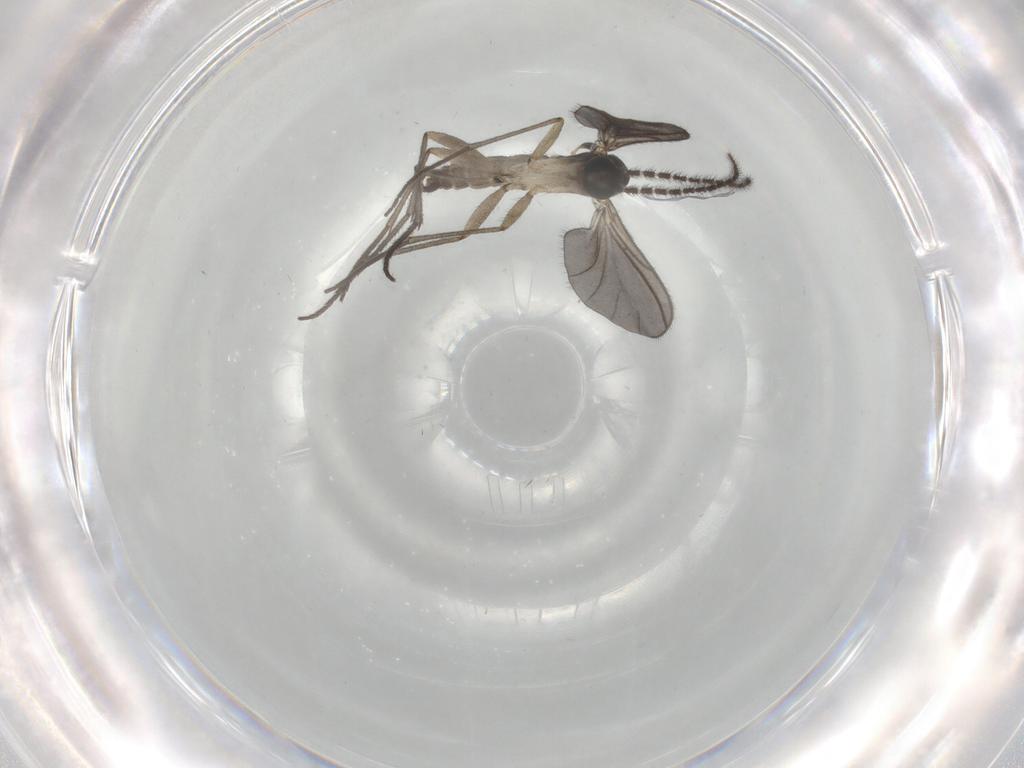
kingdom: Animalia
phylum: Arthropoda
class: Insecta
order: Diptera
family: Sciaridae
